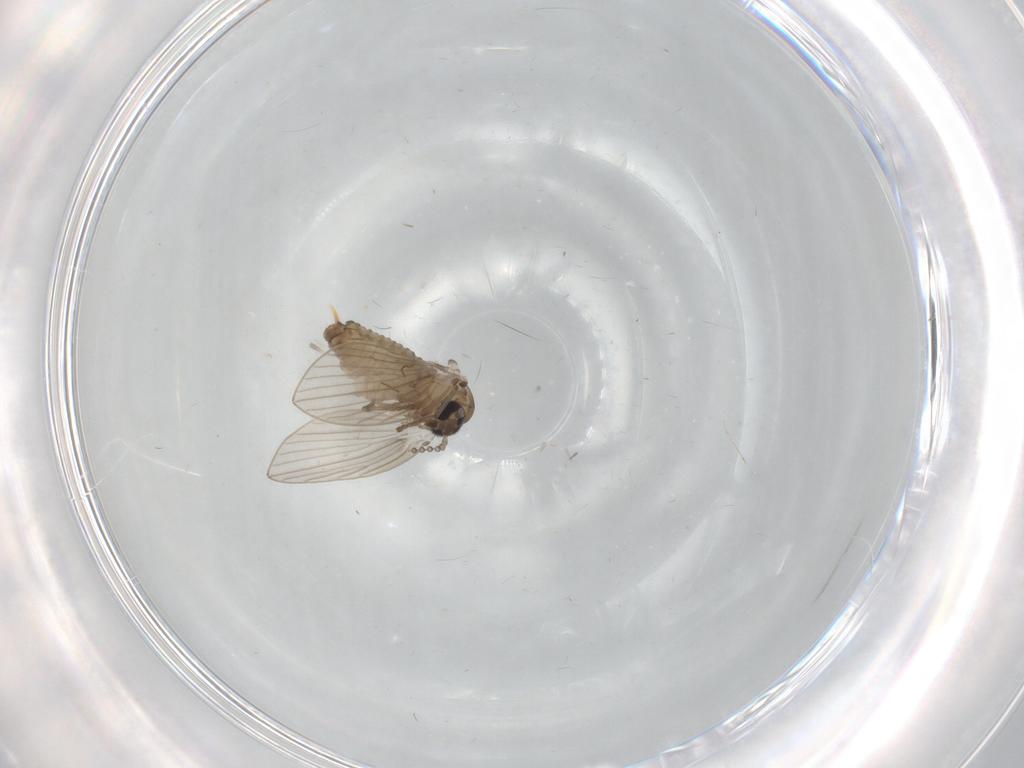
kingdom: Animalia
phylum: Arthropoda
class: Insecta
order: Diptera
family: Psychodidae
